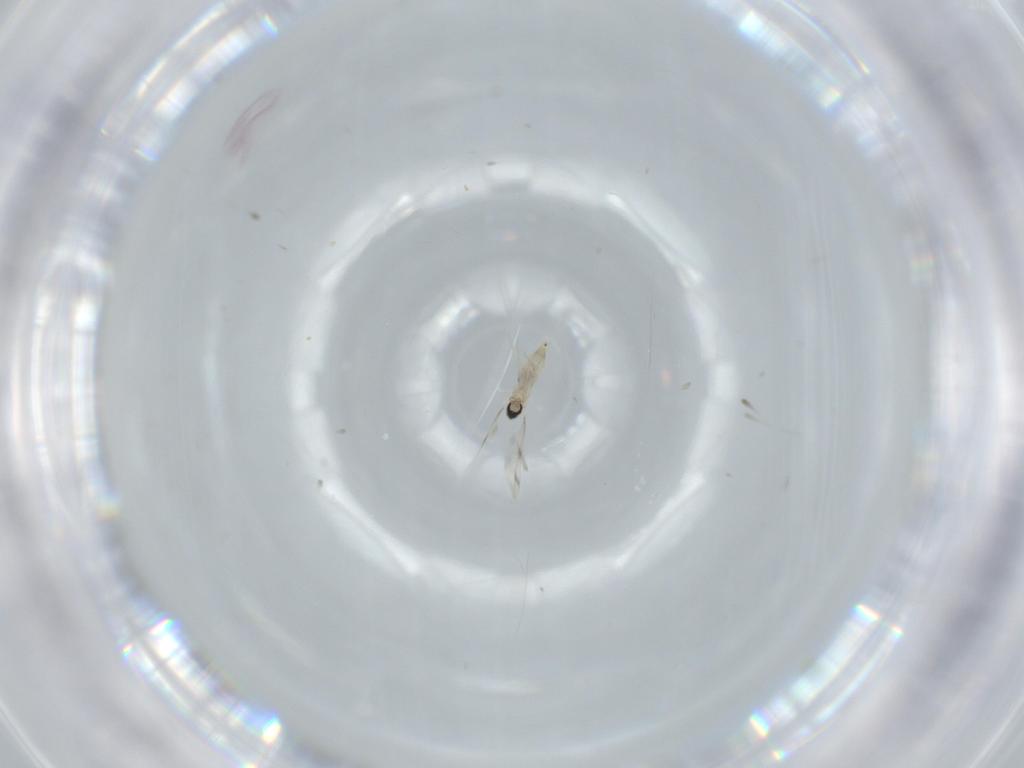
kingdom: Animalia
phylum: Arthropoda
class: Insecta
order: Diptera
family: Cecidomyiidae
